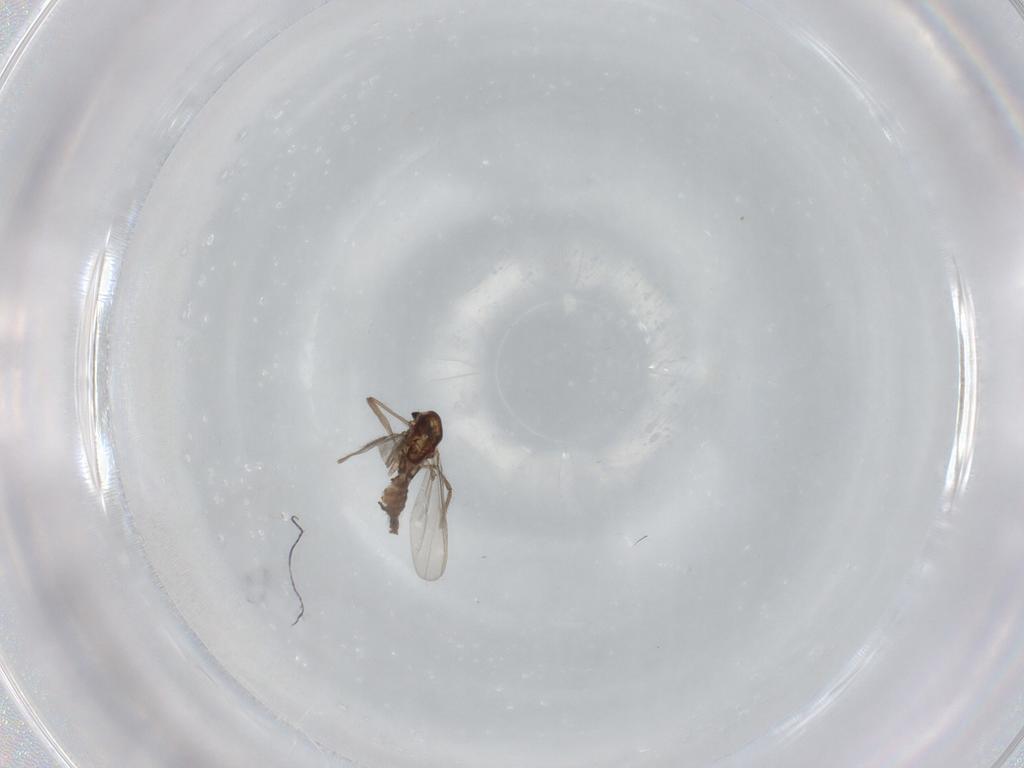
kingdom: Animalia
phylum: Arthropoda
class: Insecta
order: Diptera
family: Chironomidae
